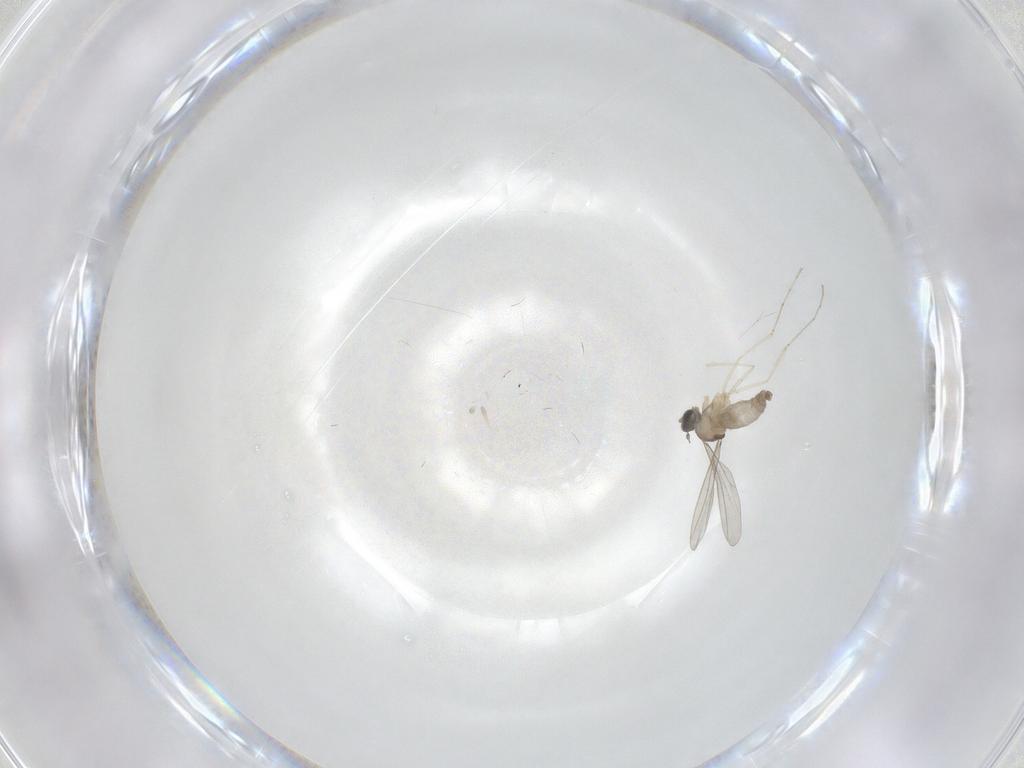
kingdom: Animalia
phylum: Arthropoda
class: Insecta
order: Diptera
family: Cecidomyiidae
